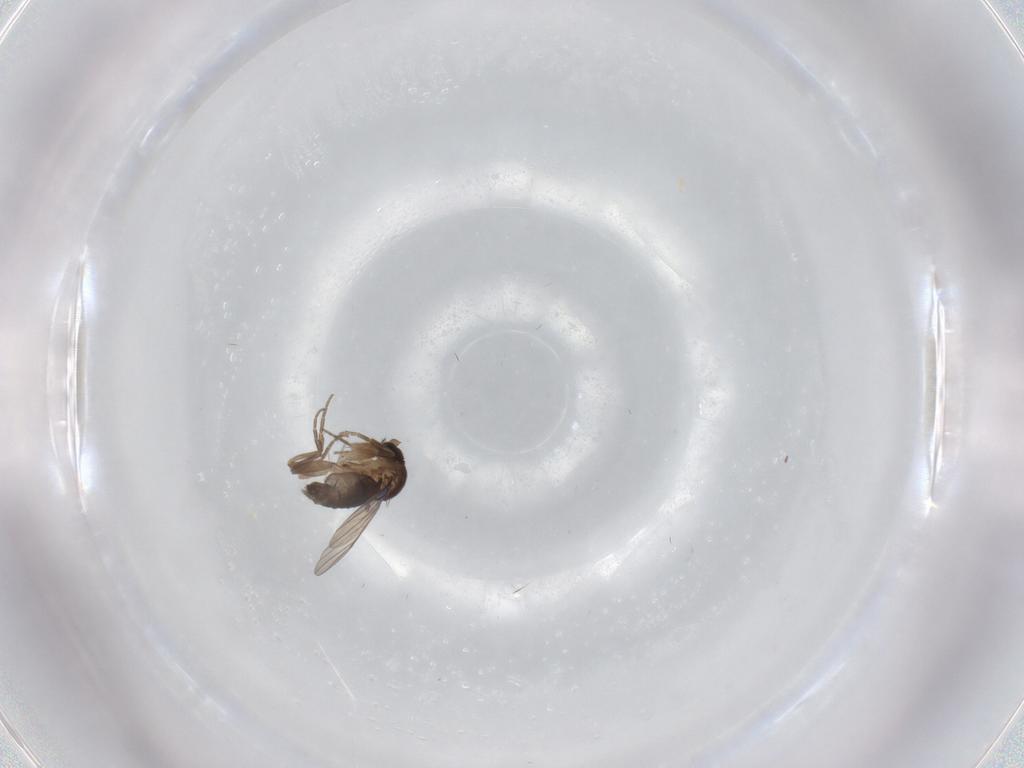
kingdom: Animalia
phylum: Arthropoda
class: Insecta
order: Diptera
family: Phoridae
